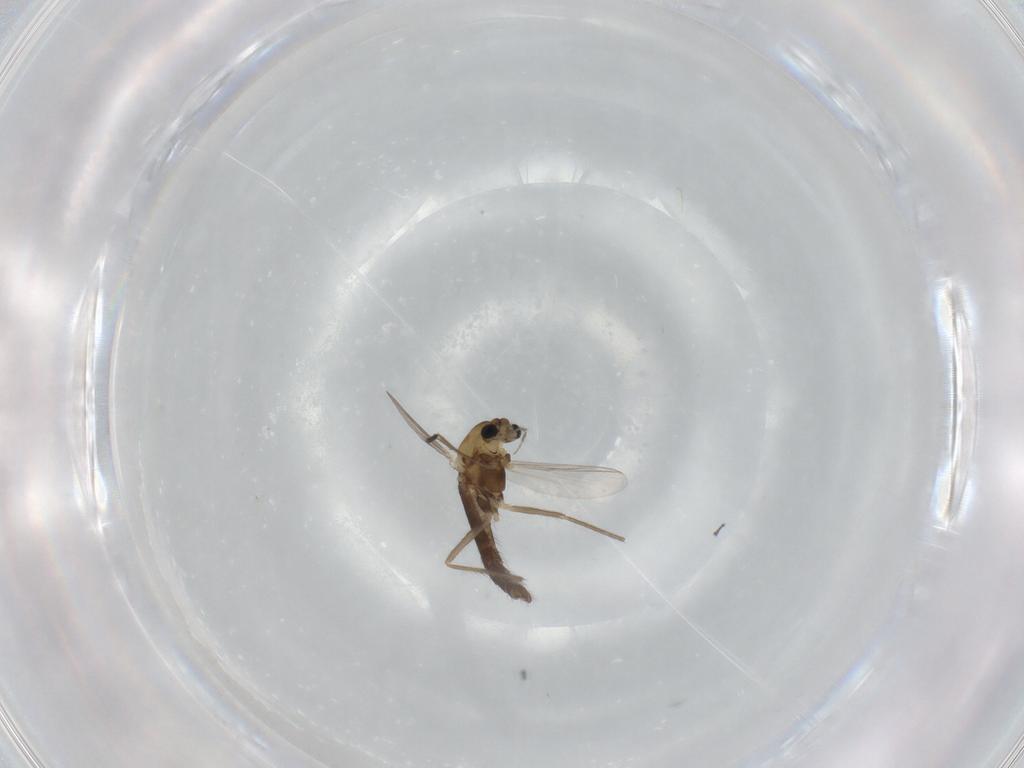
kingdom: Animalia
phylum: Arthropoda
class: Insecta
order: Diptera
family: Chironomidae
